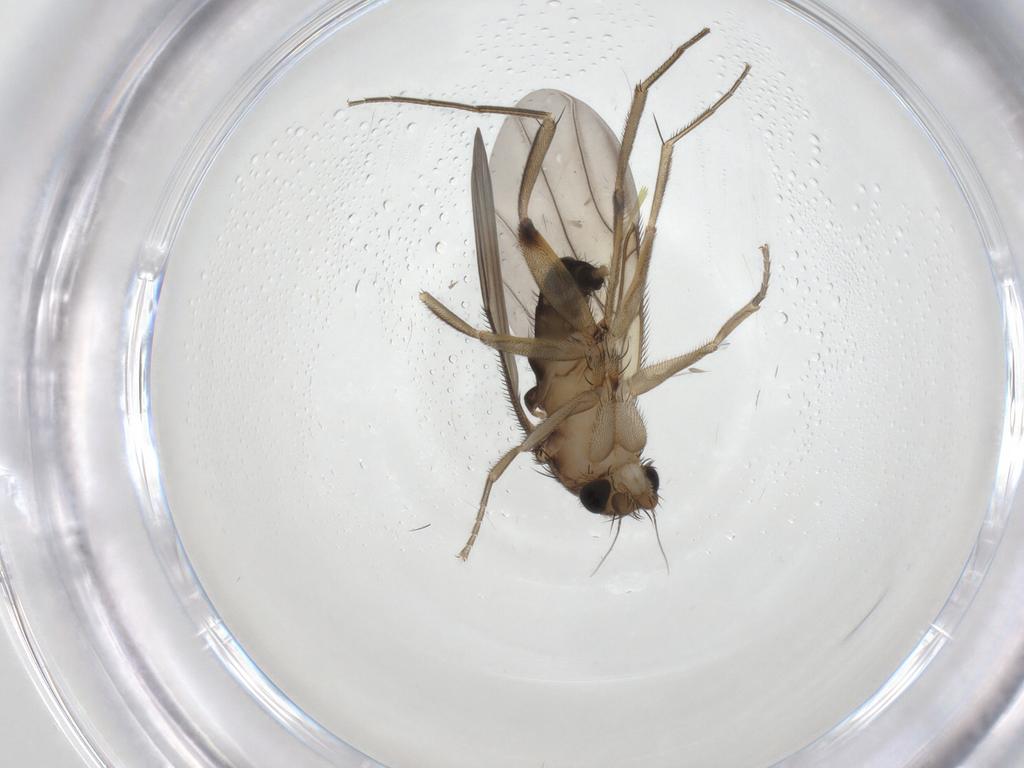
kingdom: Animalia
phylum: Arthropoda
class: Insecta
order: Diptera
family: Phoridae
